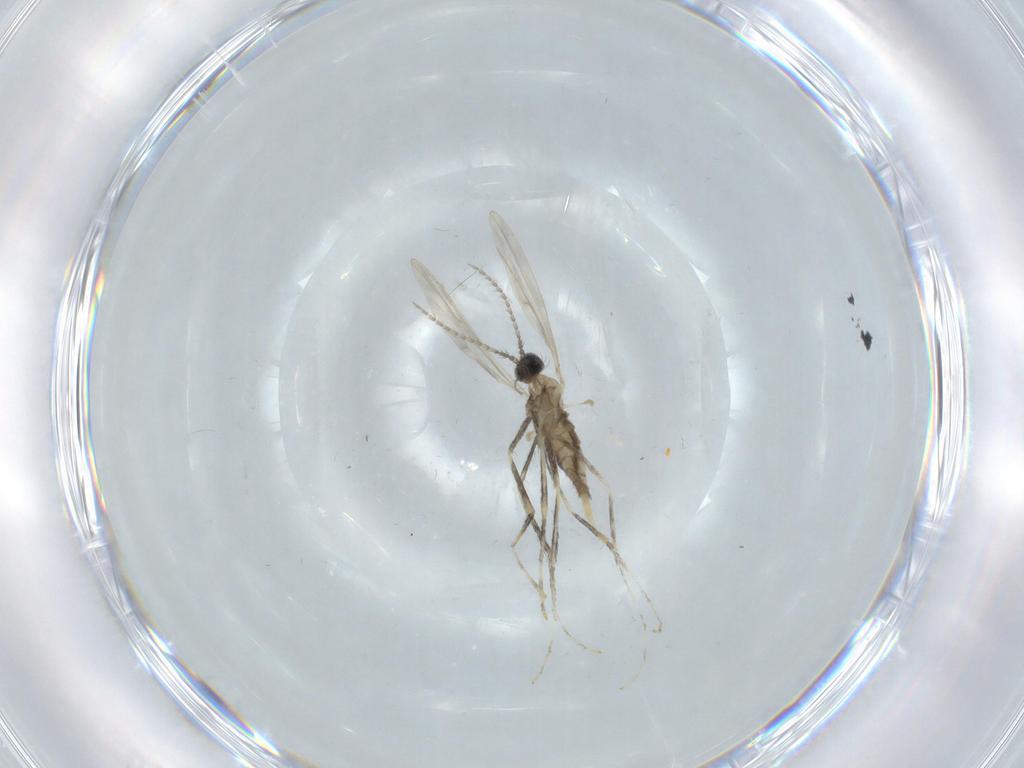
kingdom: Animalia
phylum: Arthropoda
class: Insecta
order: Diptera
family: Cecidomyiidae
